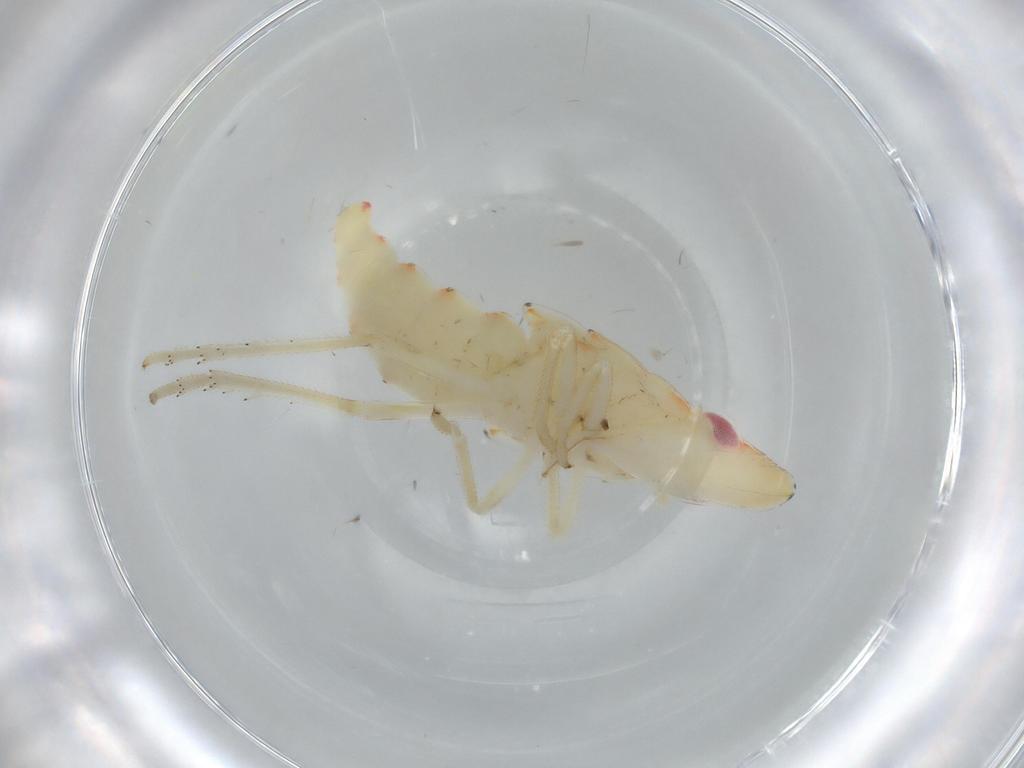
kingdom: Animalia
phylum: Arthropoda
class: Insecta
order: Hemiptera
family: Tropiduchidae
